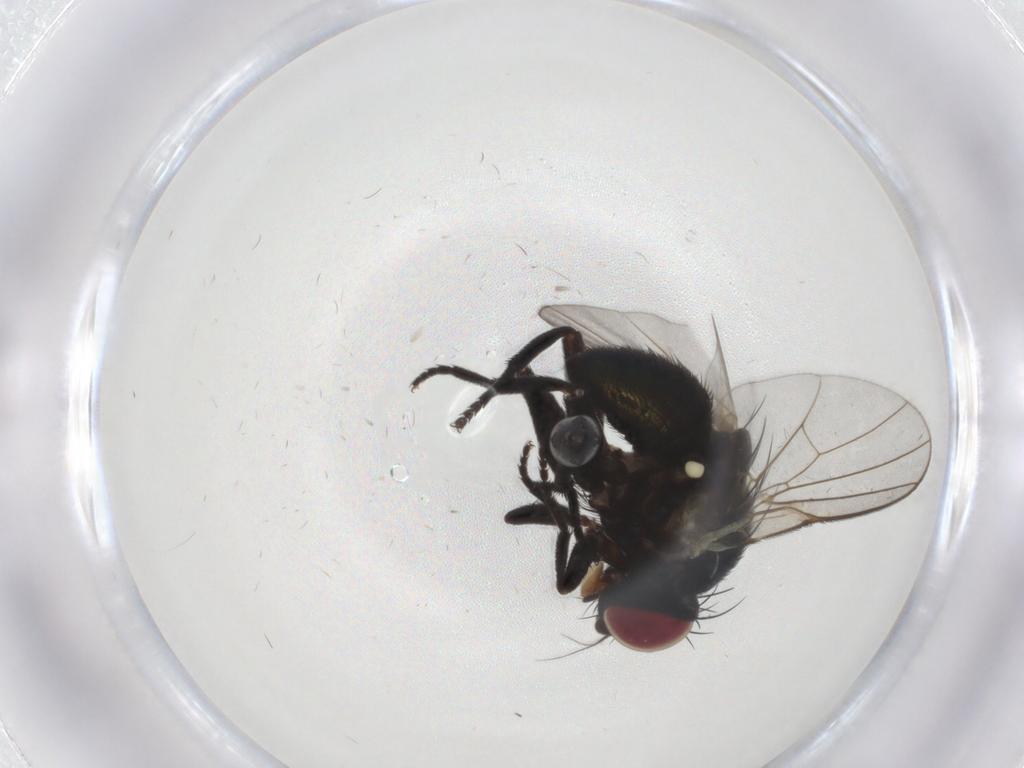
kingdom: Animalia
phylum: Arthropoda
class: Insecta
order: Diptera
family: Agromyzidae
